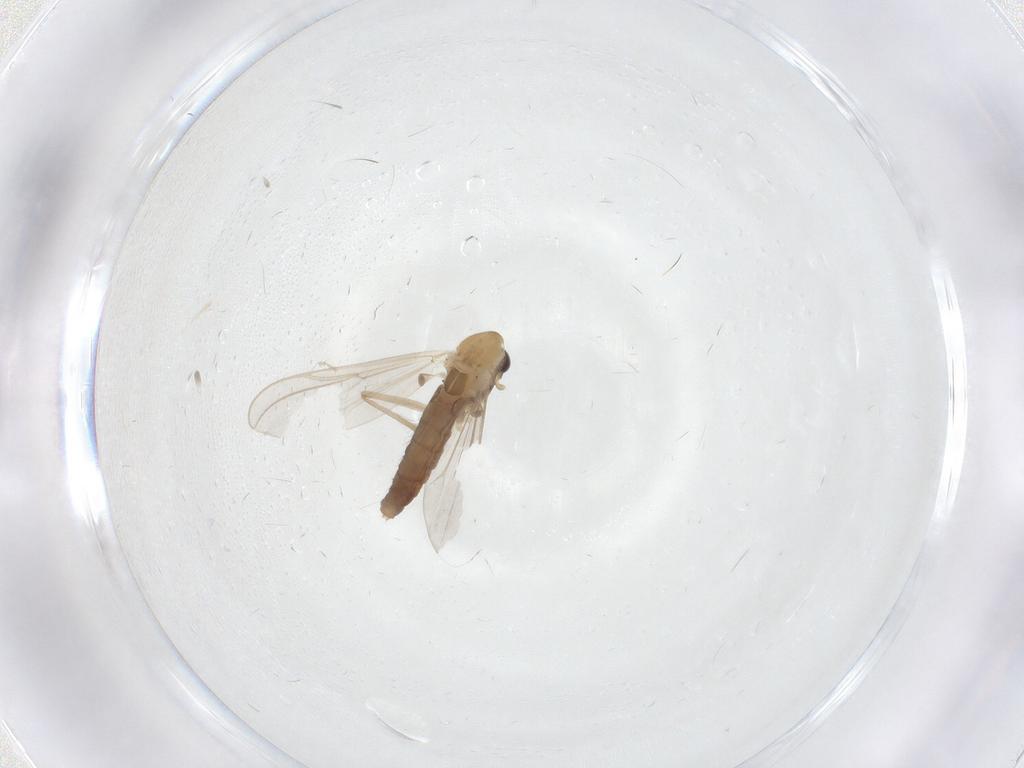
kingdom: Animalia
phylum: Arthropoda
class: Insecta
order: Diptera
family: Chironomidae
